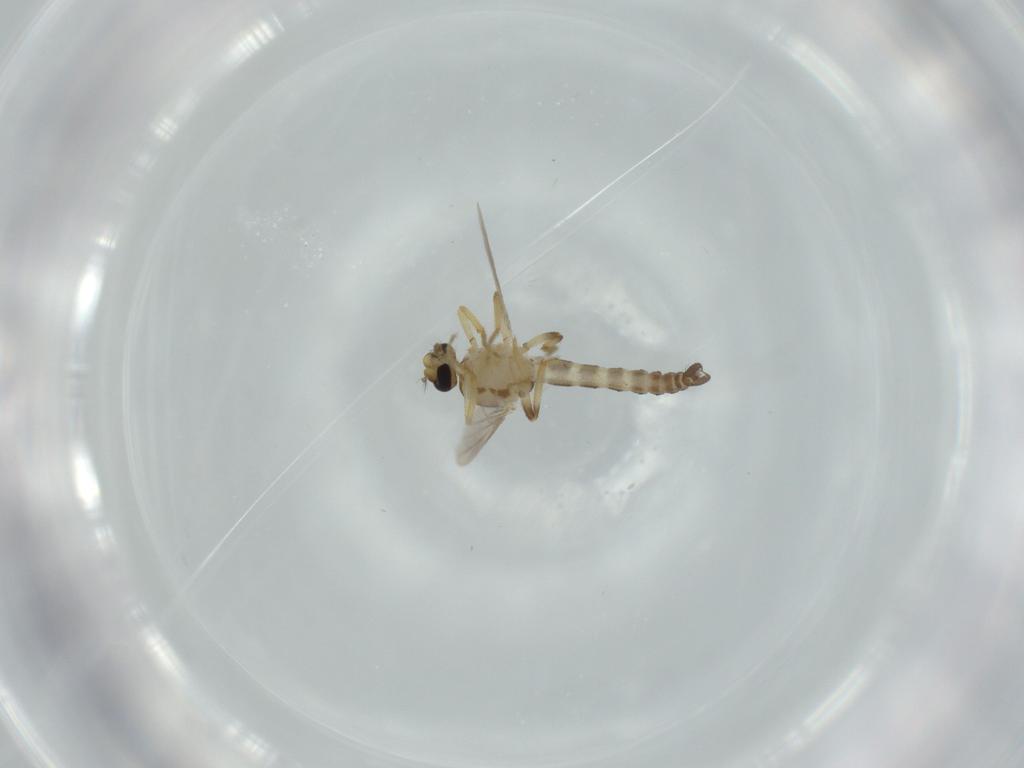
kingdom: Animalia
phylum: Arthropoda
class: Insecta
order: Diptera
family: Ceratopogonidae
